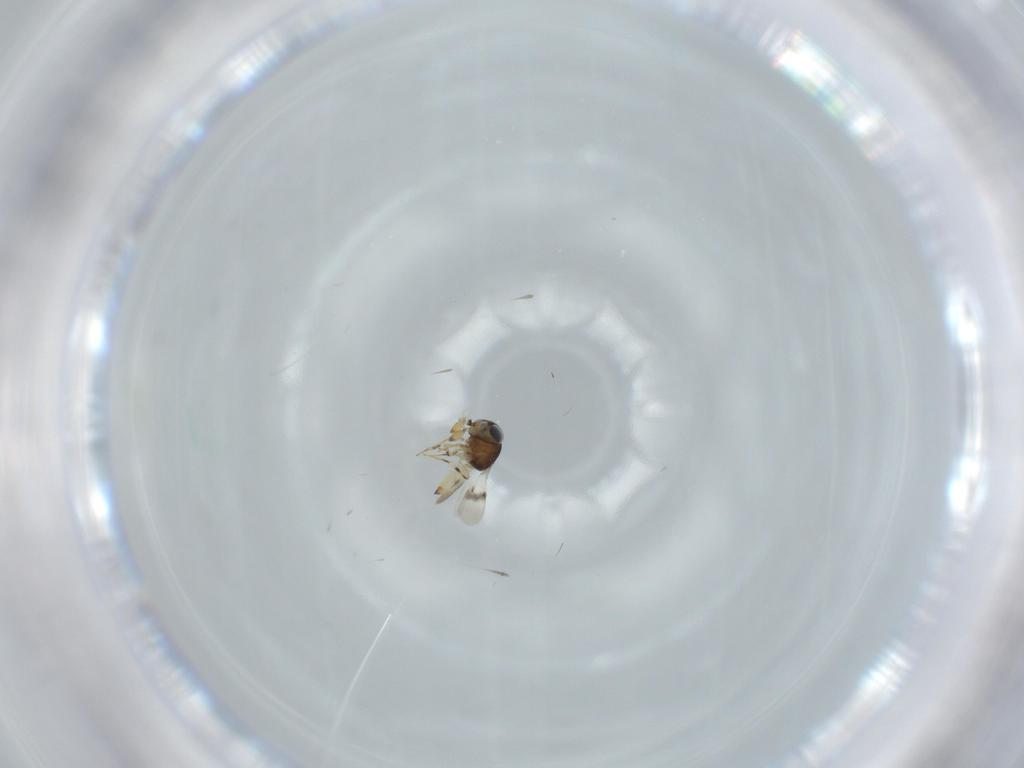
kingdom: Animalia
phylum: Arthropoda
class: Insecta
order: Hymenoptera
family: Scelionidae
